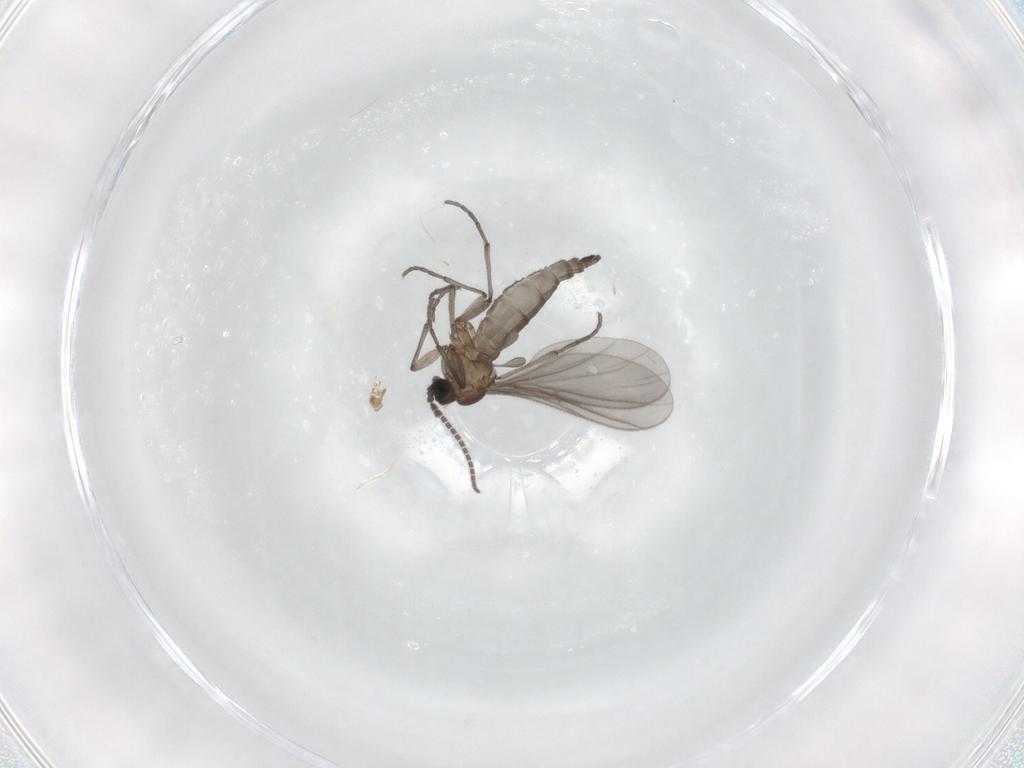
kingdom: Animalia
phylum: Arthropoda
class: Insecta
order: Diptera
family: Sciaridae
